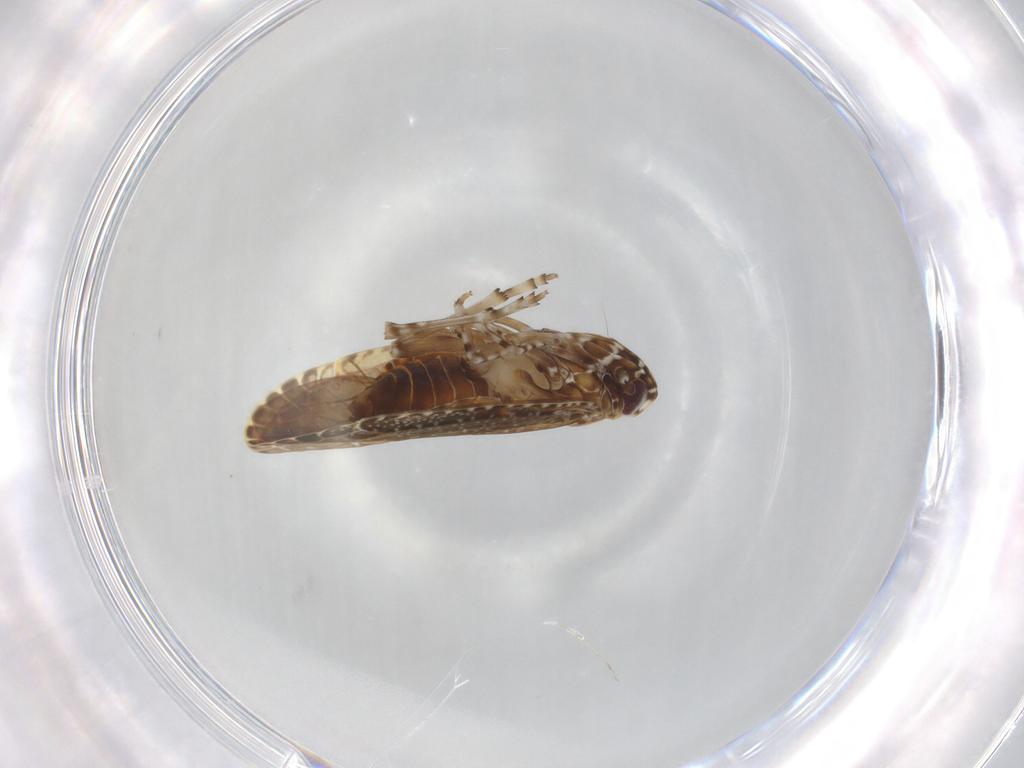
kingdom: Animalia
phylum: Arthropoda
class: Insecta
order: Hemiptera
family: Achilidae
